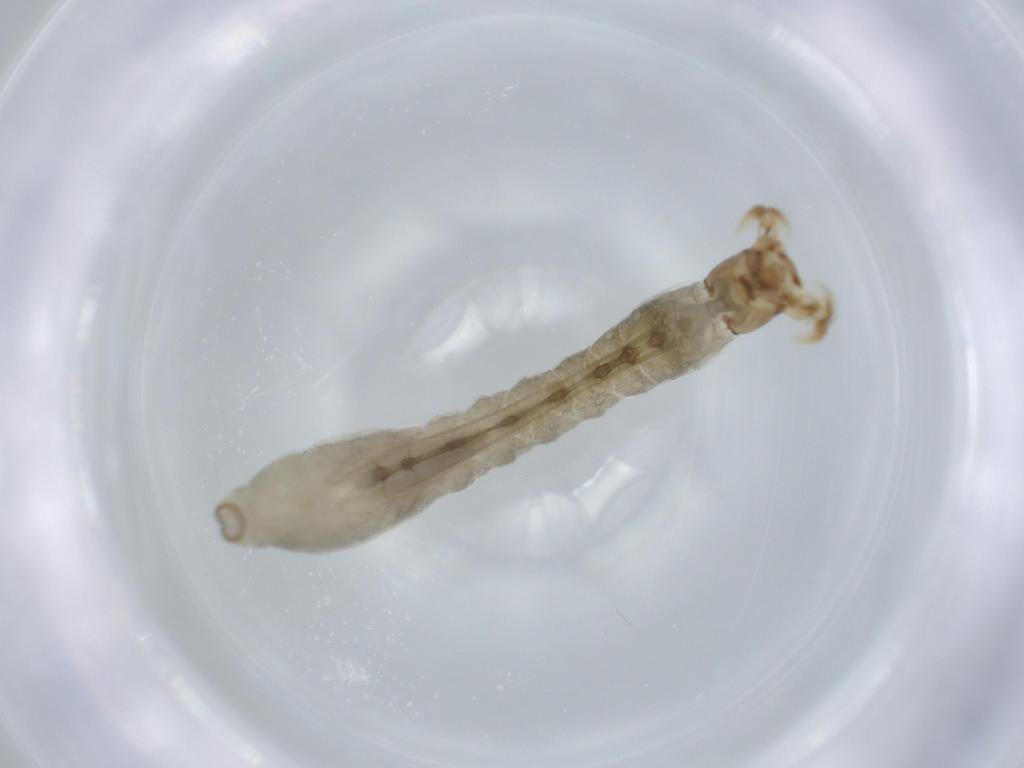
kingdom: Animalia
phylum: Arthropoda
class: Insecta
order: Diptera
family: Simuliidae
